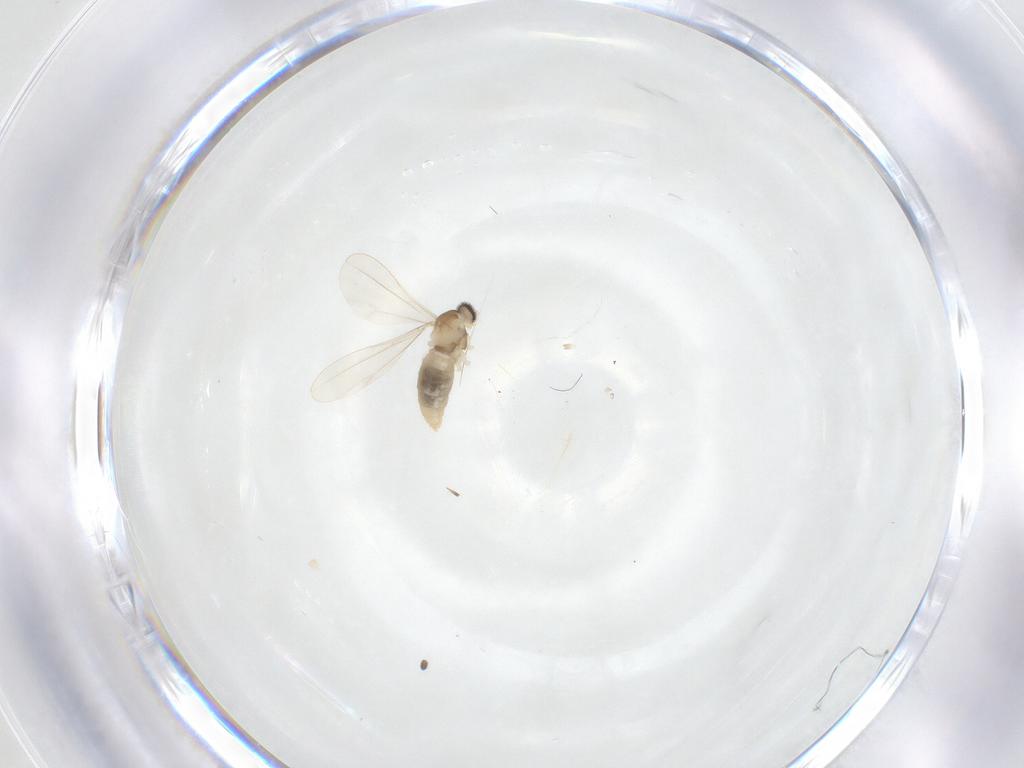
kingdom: Animalia
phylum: Arthropoda
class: Insecta
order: Diptera
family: Cecidomyiidae
